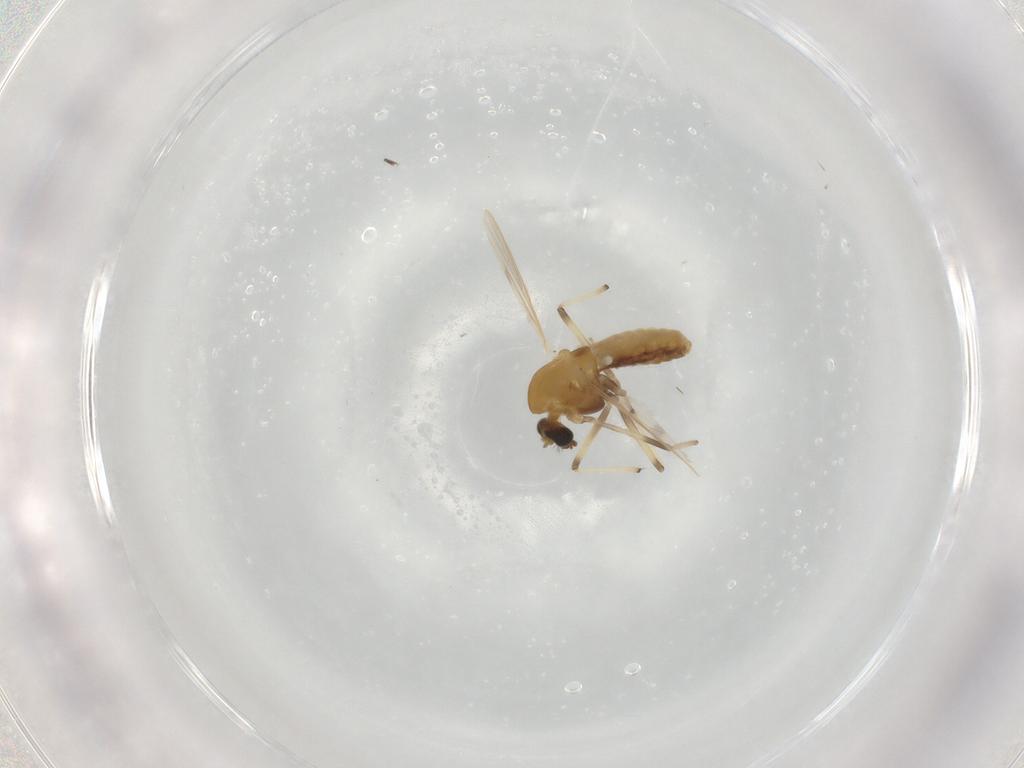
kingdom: Animalia
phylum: Arthropoda
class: Insecta
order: Diptera
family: Sciaridae
